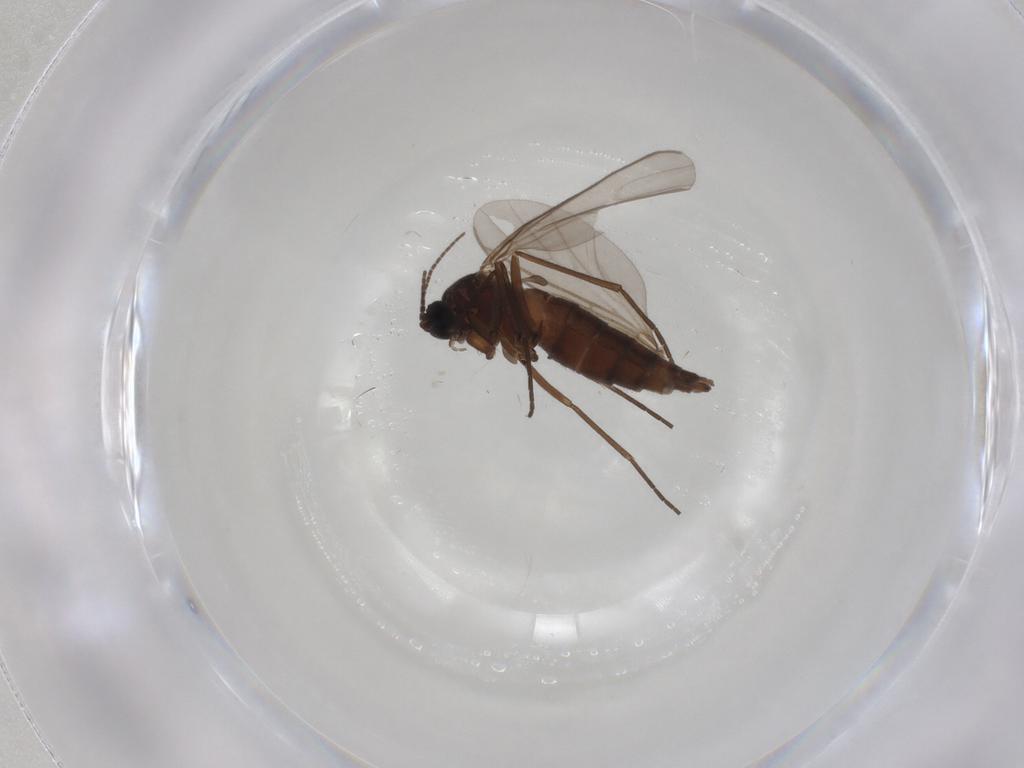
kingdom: Animalia
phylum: Arthropoda
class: Insecta
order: Diptera
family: Sciaridae
